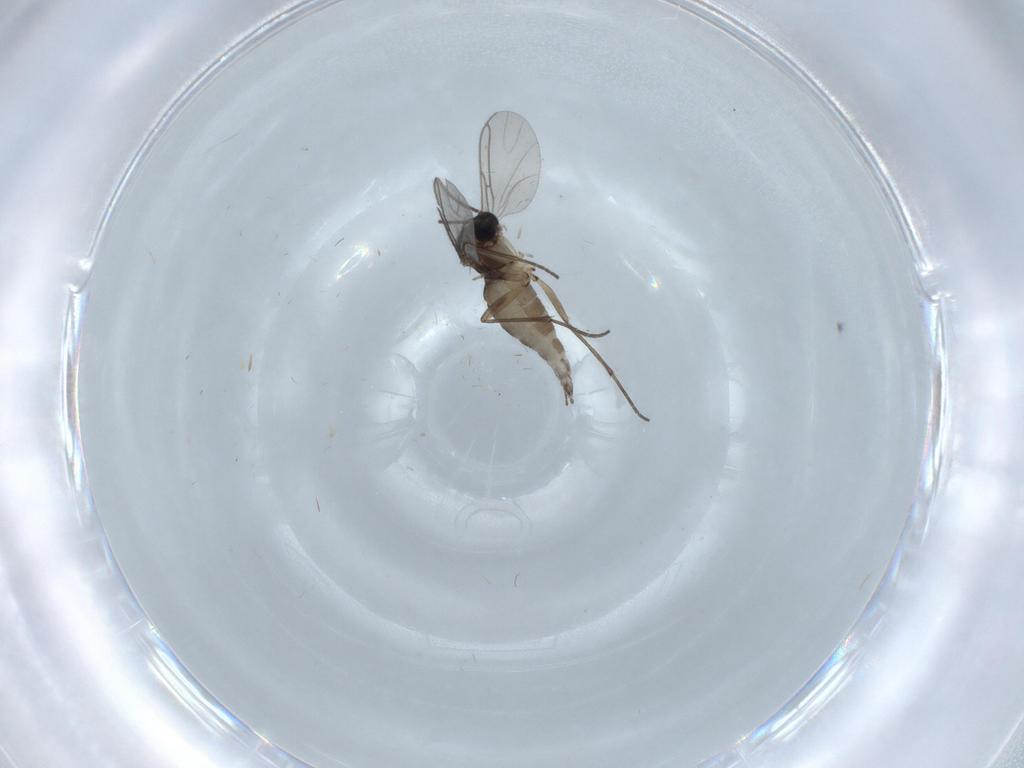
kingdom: Animalia
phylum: Arthropoda
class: Insecta
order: Diptera
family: Sciaridae
